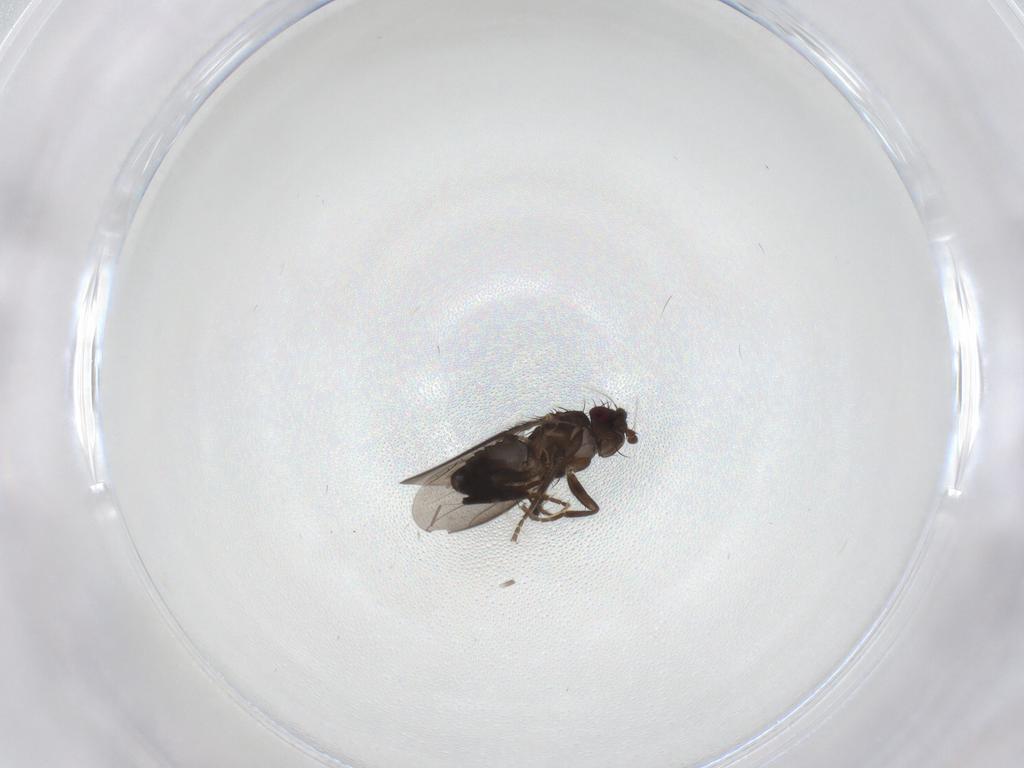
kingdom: Animalia
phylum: Arthropoda
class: Insecta
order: Diptera
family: Sphaeroceridae
